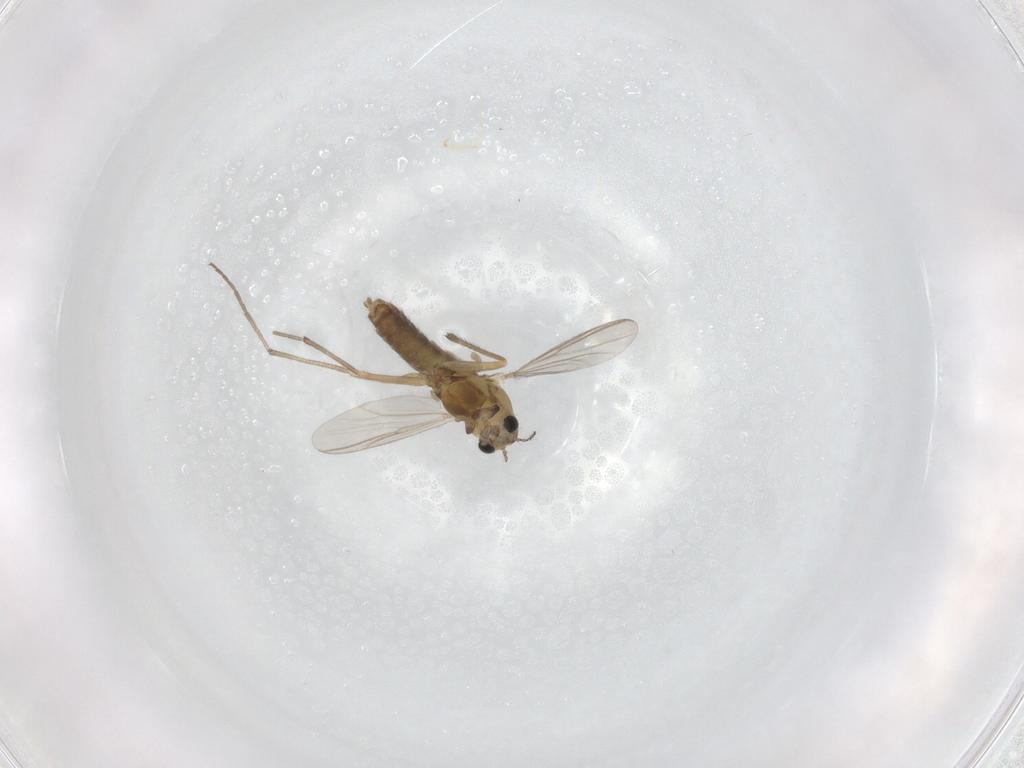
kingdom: Animalia
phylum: Arthropoda
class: Insecta
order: Diptera
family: Chironomidae
